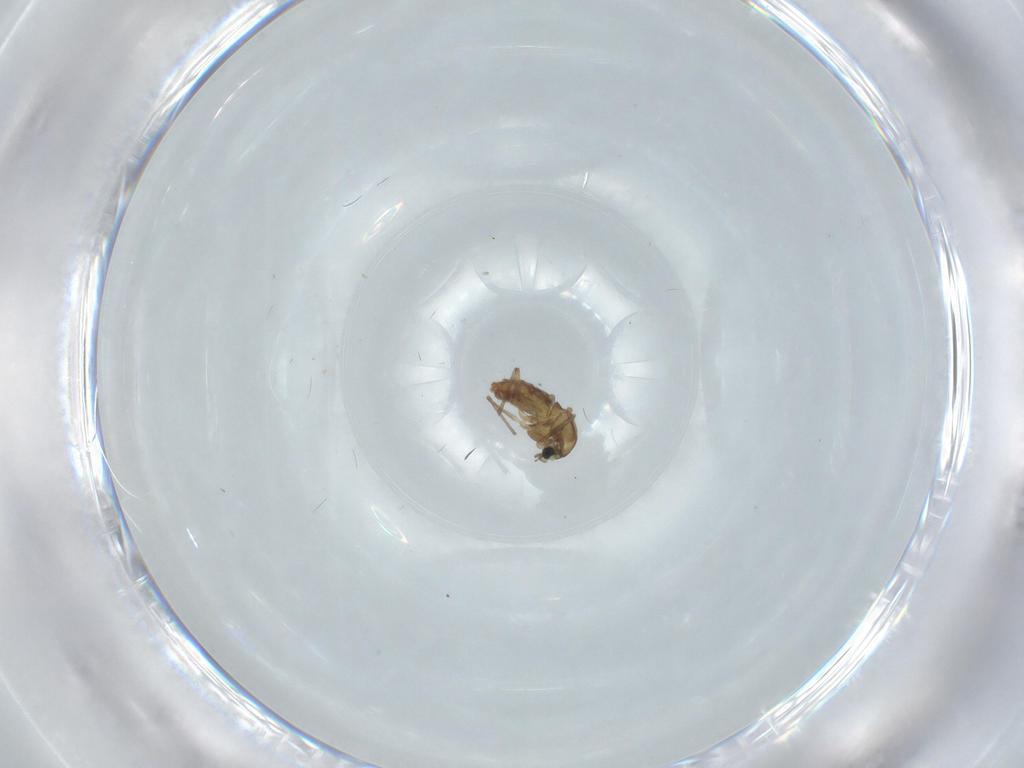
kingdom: Animalia
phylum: Arthropoda
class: Insecta
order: Diptera
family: Chironomidae
